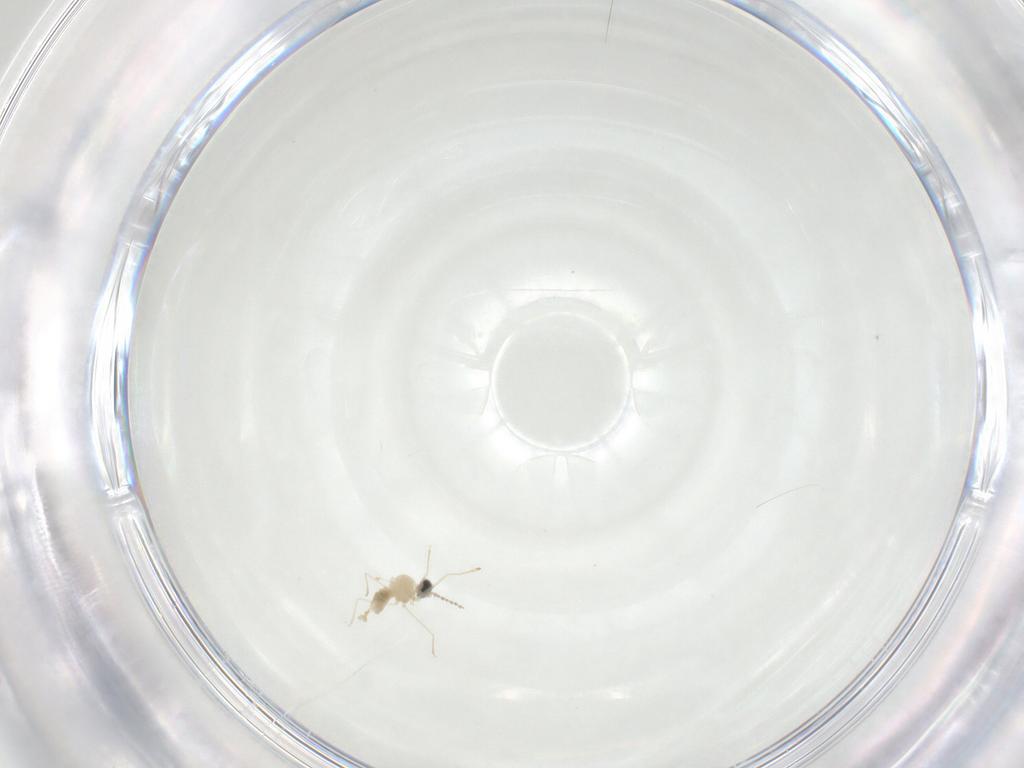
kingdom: Animalia
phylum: Arthropoda
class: Insecta
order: Diptera
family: Cecidomyiidae
